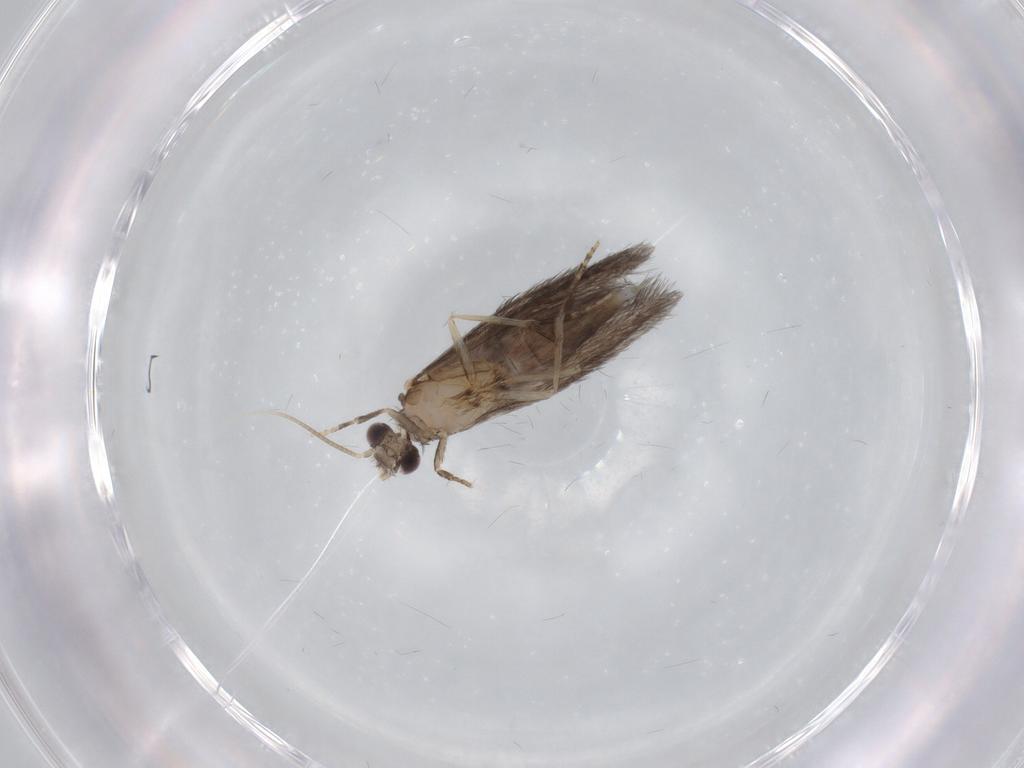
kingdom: Animalia
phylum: Arthropoda
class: Insecta
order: Trichoptera
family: Hydroptilidae
